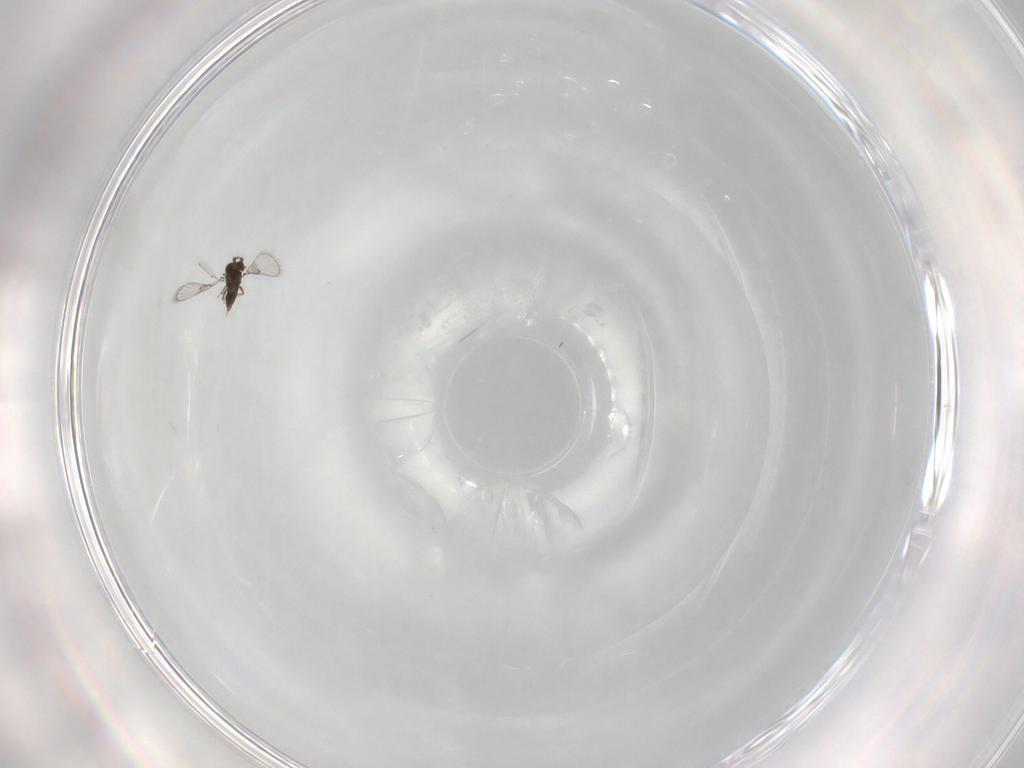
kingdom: Animalia
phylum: Arthropoda
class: Insecta
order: Hymenoptera
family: Trichogrammatidae
